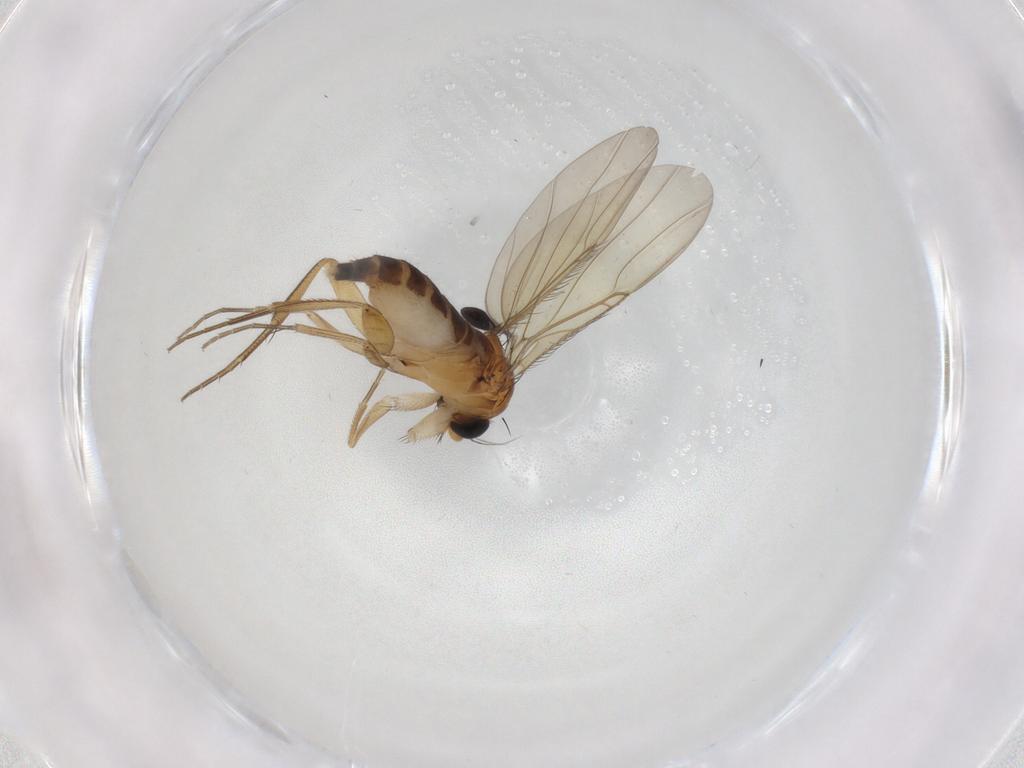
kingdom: Animalia
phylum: Arthropoda
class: Insecta
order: Diptera
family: Phoridae
